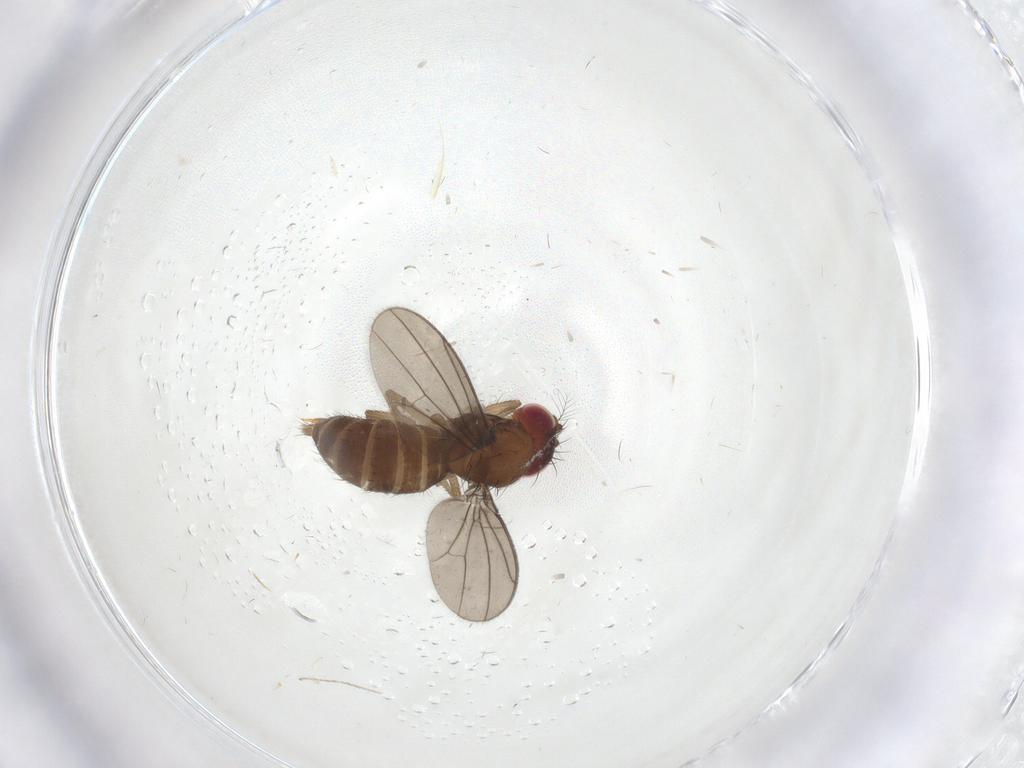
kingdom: Animalia
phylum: Arthropoda
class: Insecta
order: Diptera
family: Drosophilidae
